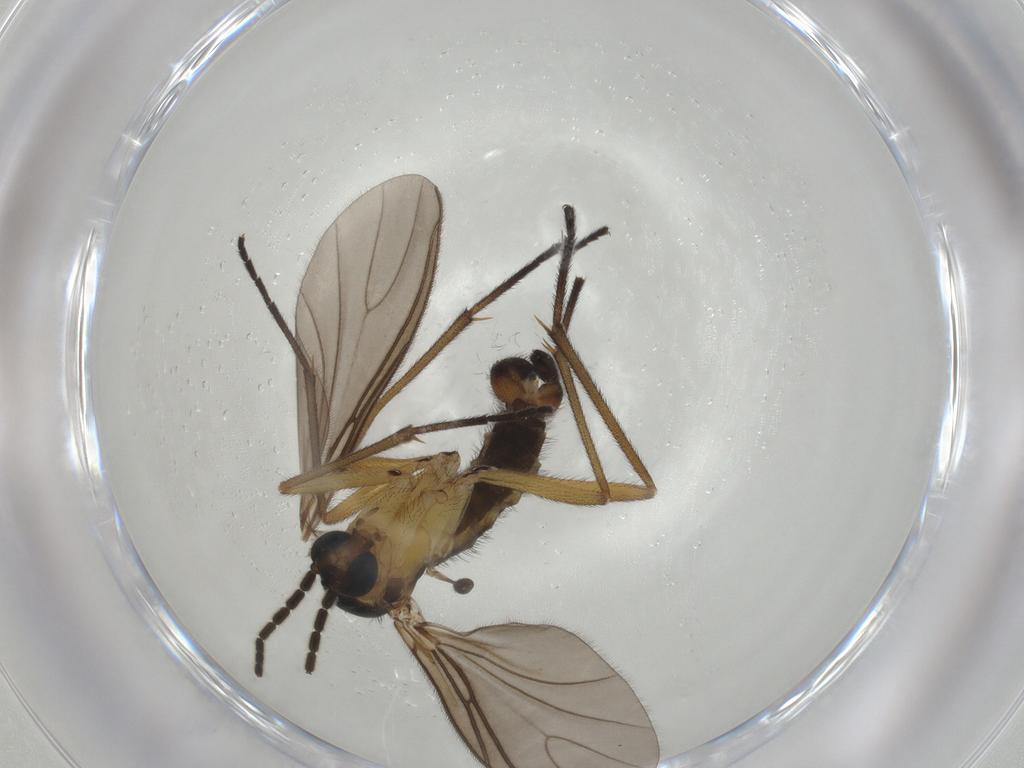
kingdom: Animalia
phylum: Arthropoda
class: Insecta
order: Diptera
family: Sciaridae
